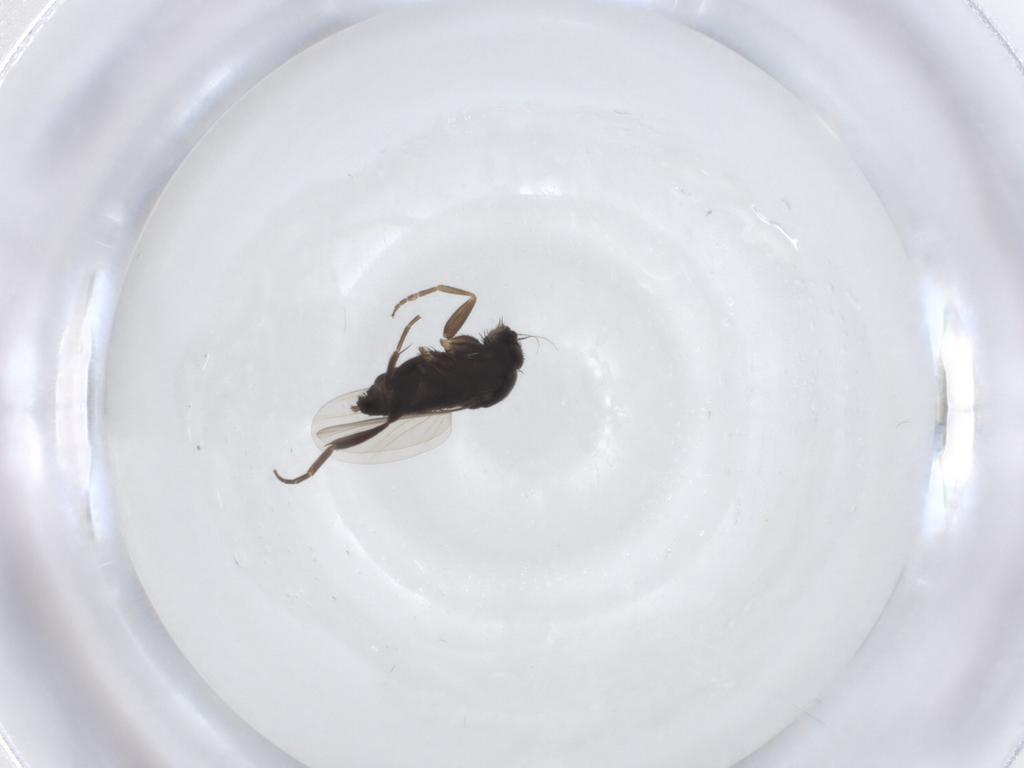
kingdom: Animalia
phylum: Arthropoda
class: Insecta
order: Diptera
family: Phoridae
